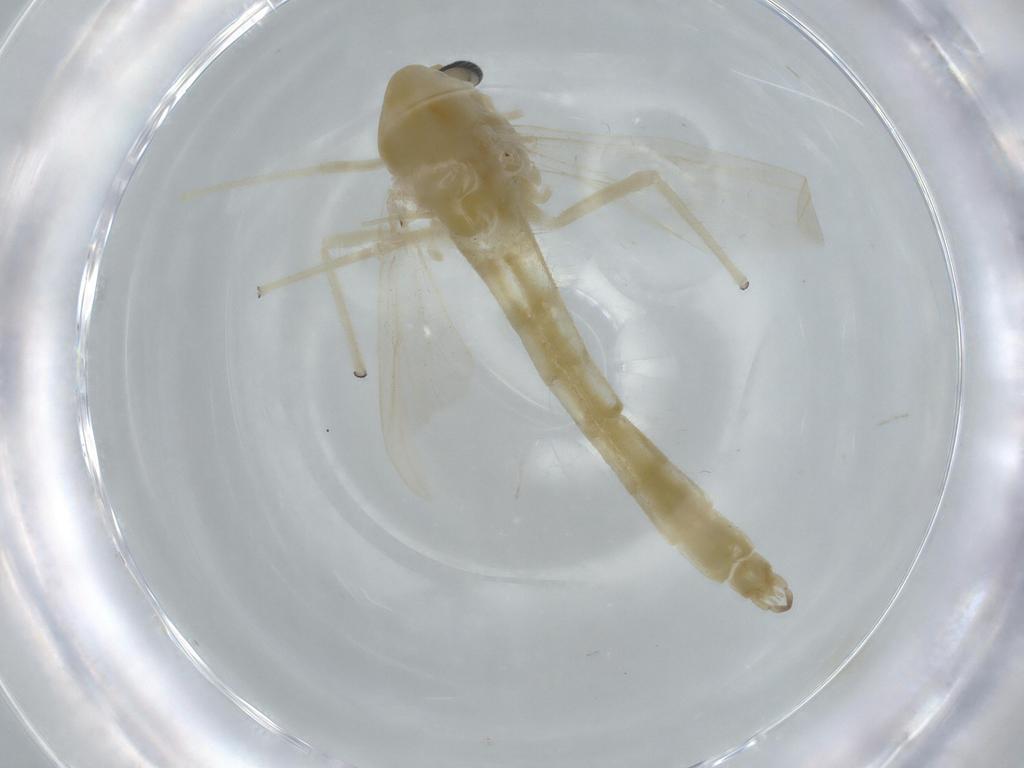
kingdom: Animalia
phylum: Arthropoda
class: Insecta
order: Diptera
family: Chironomidae
